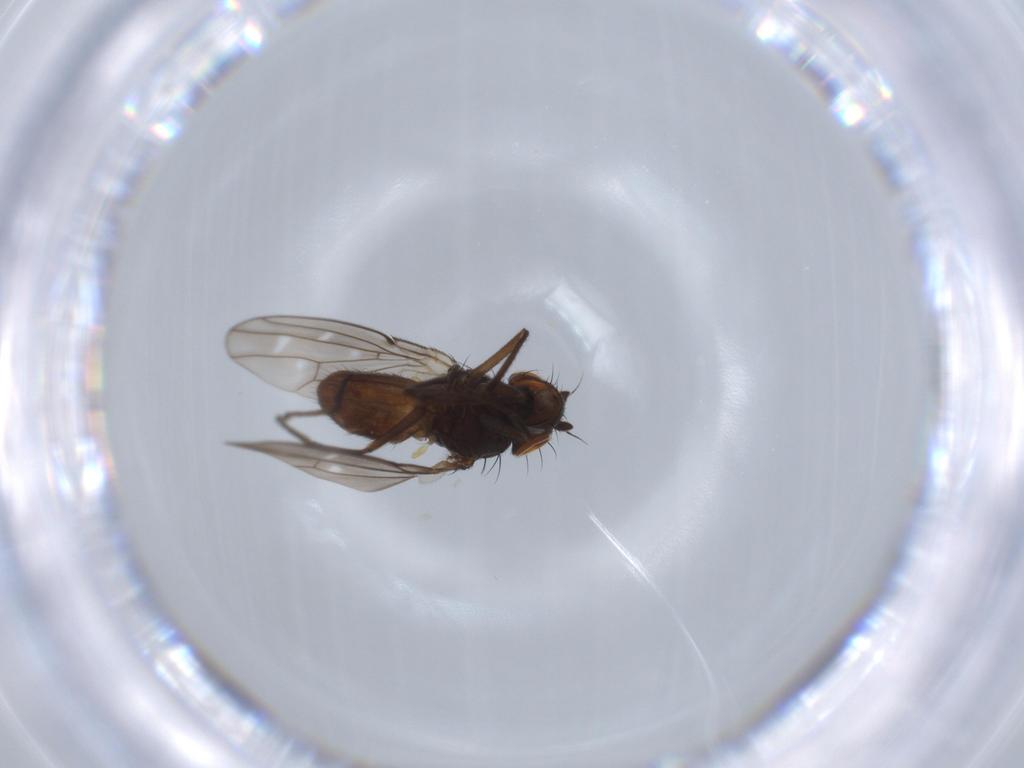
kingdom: Animalia
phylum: Arthropoda
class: Insecta
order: Diptera
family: Ephydridae
